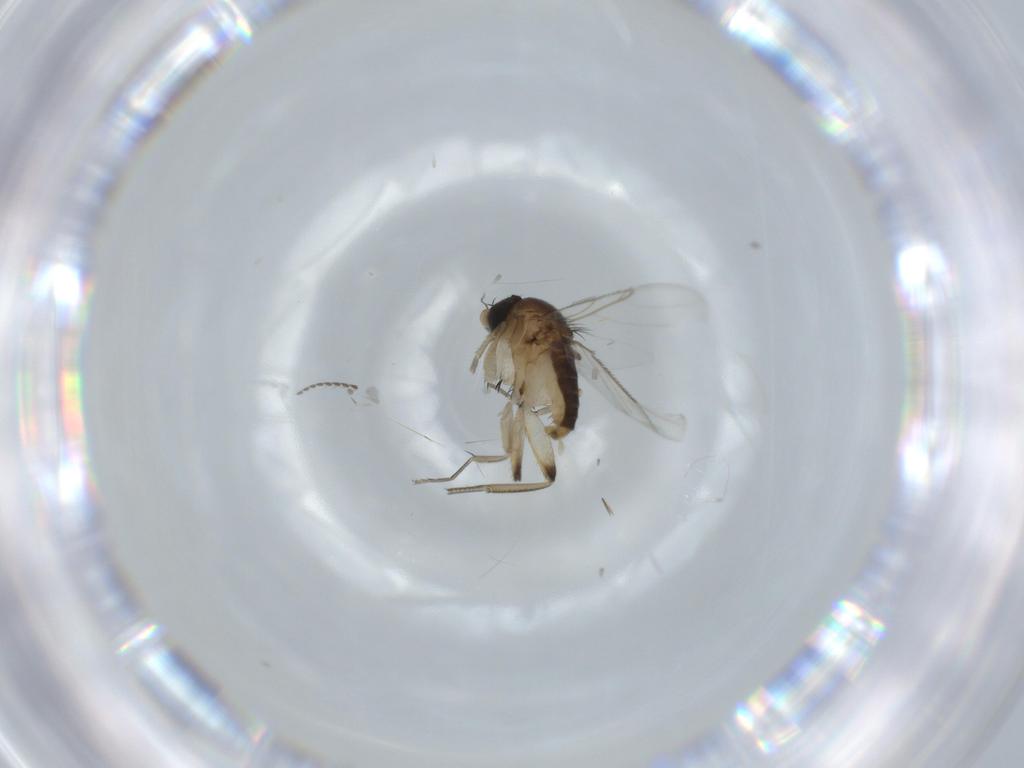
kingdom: Animalia
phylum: Arthropoda
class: Insecta
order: Diptera
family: Phoridae
